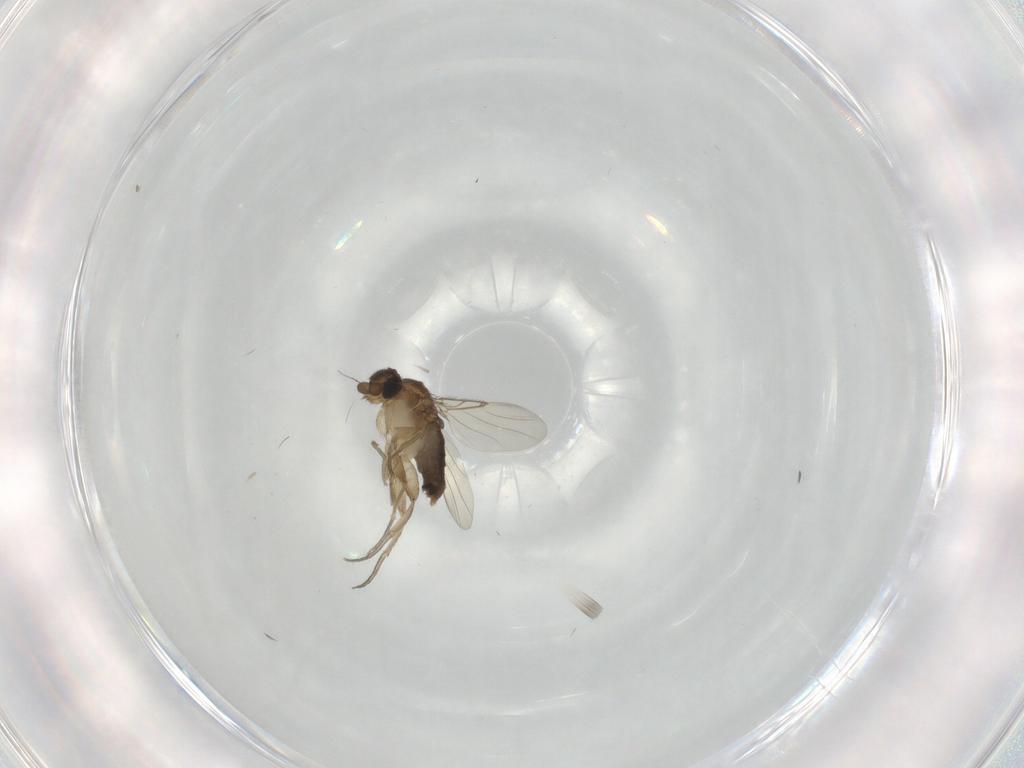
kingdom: Animalia
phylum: Arthropoda
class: Insecta
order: Diptera
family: Phoridae
